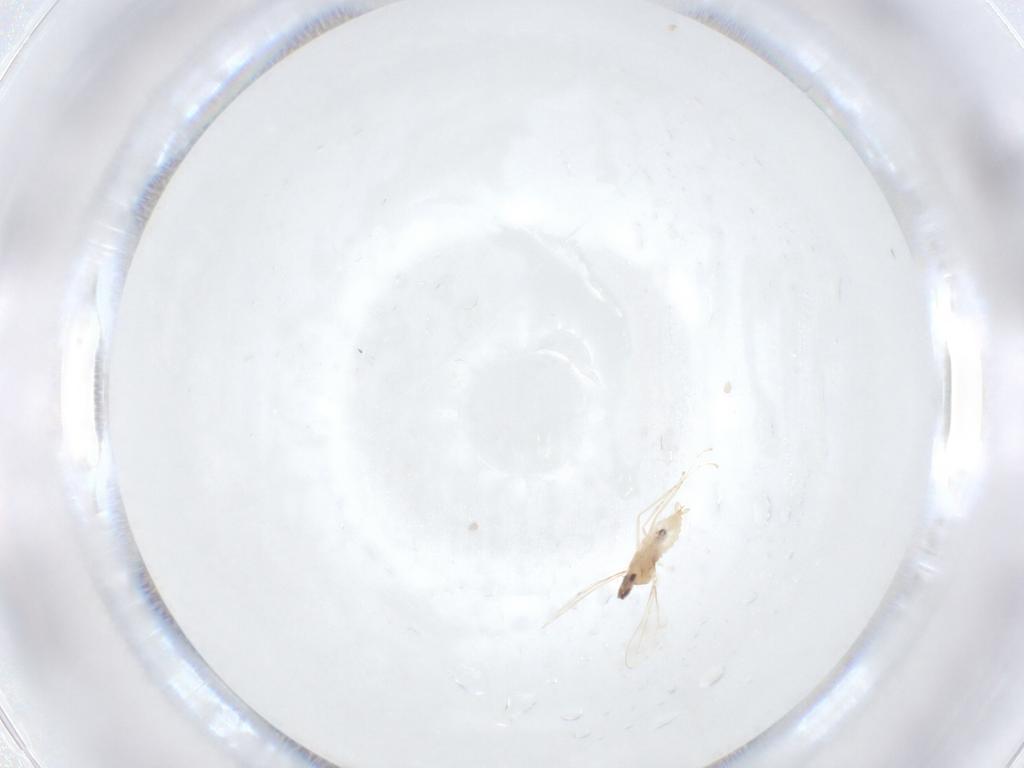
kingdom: Animalia
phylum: Arthropoda
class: Insecta
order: Diptera
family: Cecidomyiidae
